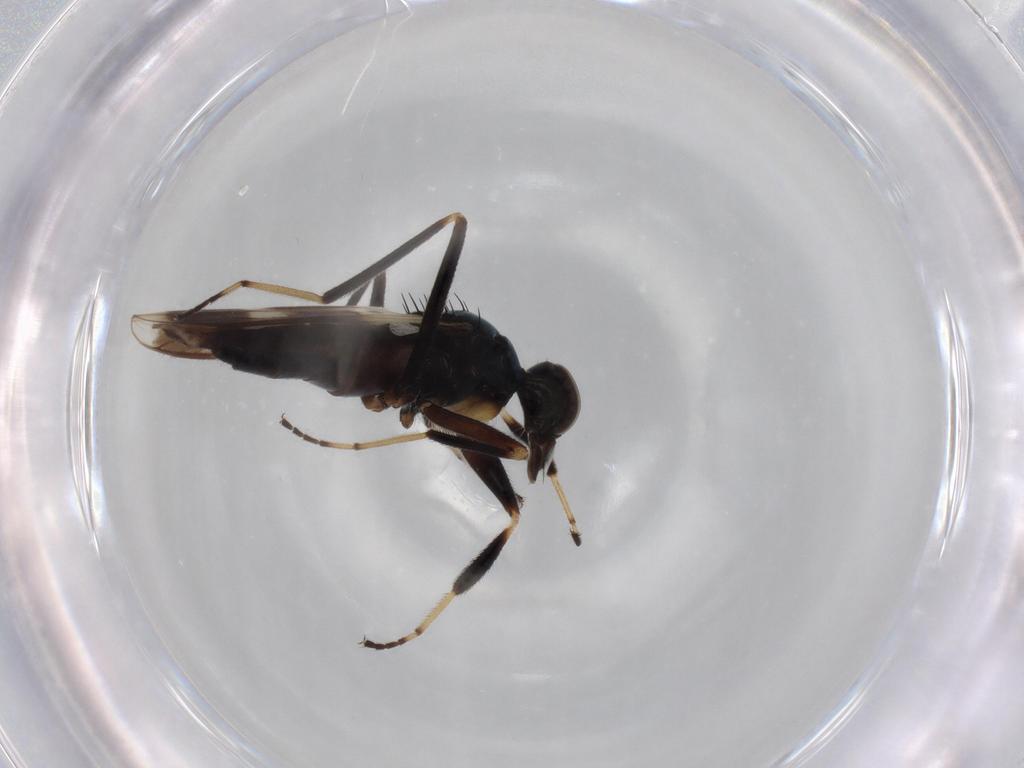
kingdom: Animalia
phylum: Arthropoda
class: Insecta
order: Diptera
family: Hybotidae
